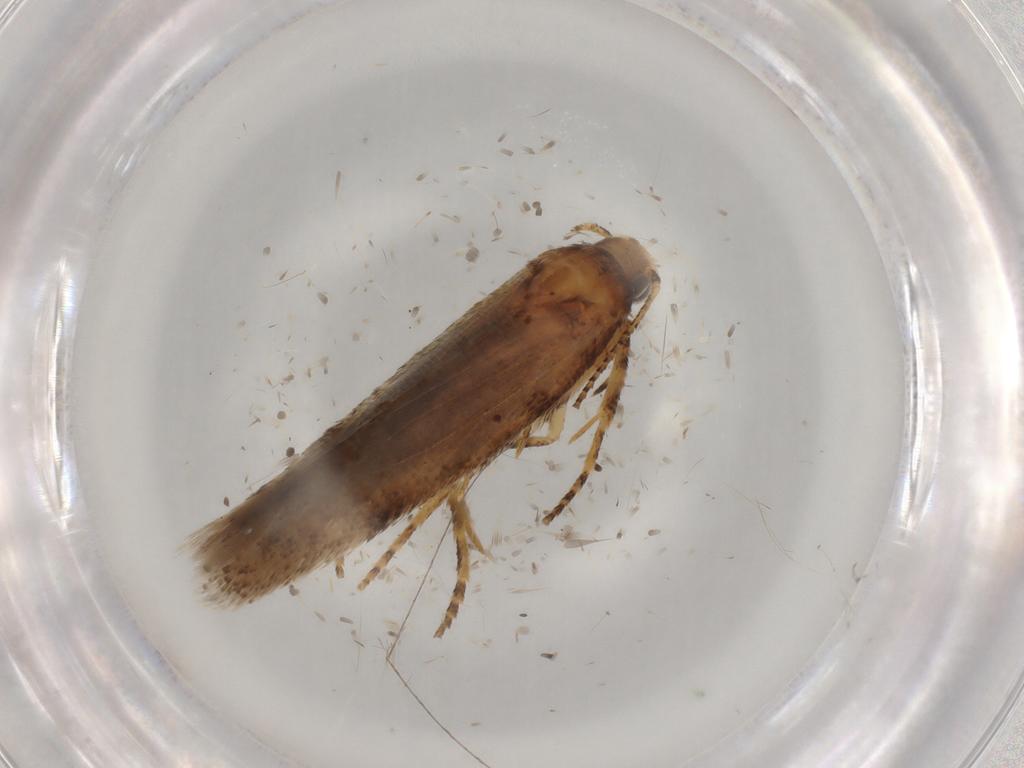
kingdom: Animalia
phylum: Arthropoda
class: Insecta
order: Lepidoptera
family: Gelechiidae
